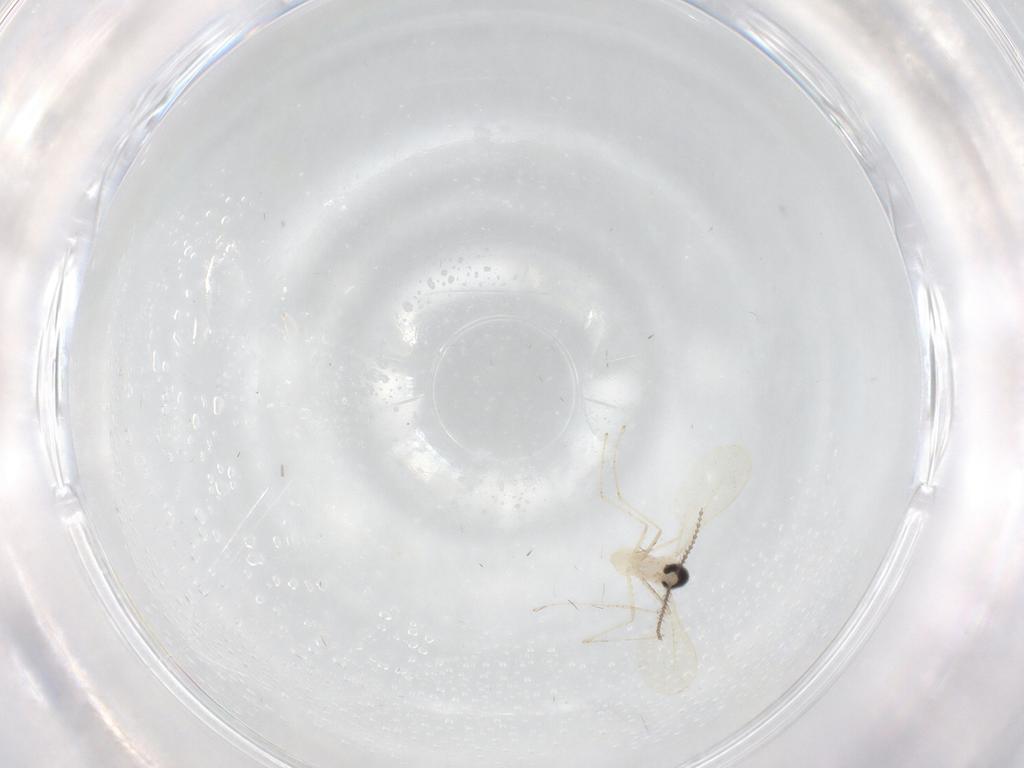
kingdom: Animalia
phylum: Arthropoda
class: Insecta
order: Diptera
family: Cecidomyiidae
